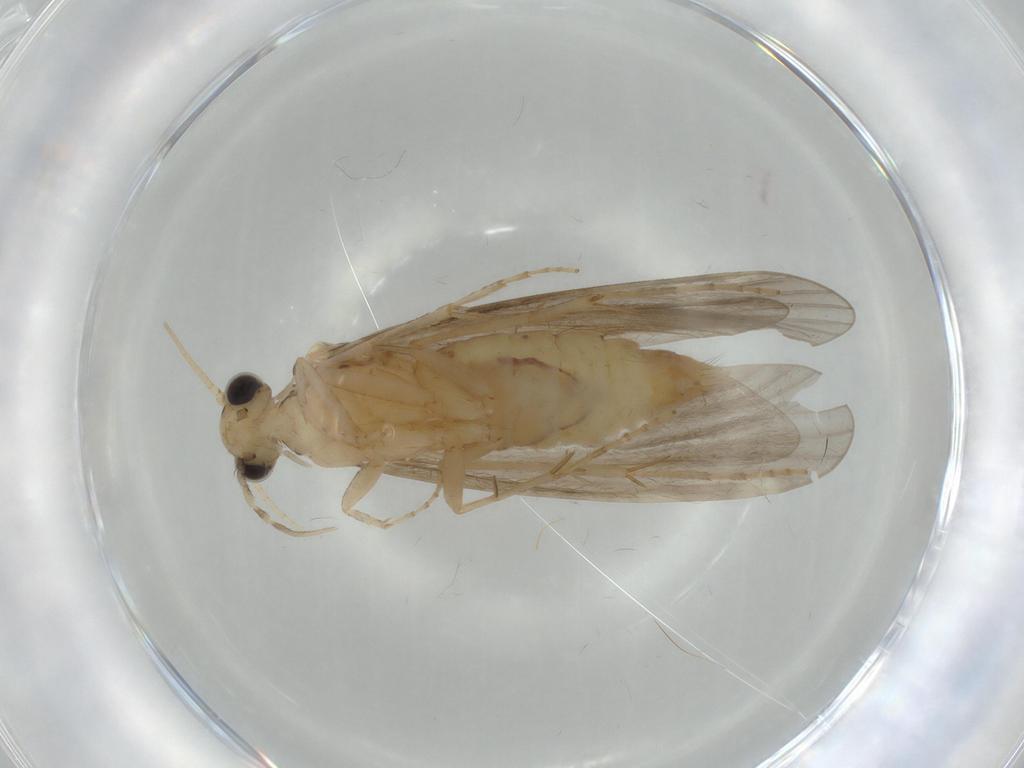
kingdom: Animalia
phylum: Arthropoda
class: Insecta
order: Trichoptera
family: Ecnomidae
